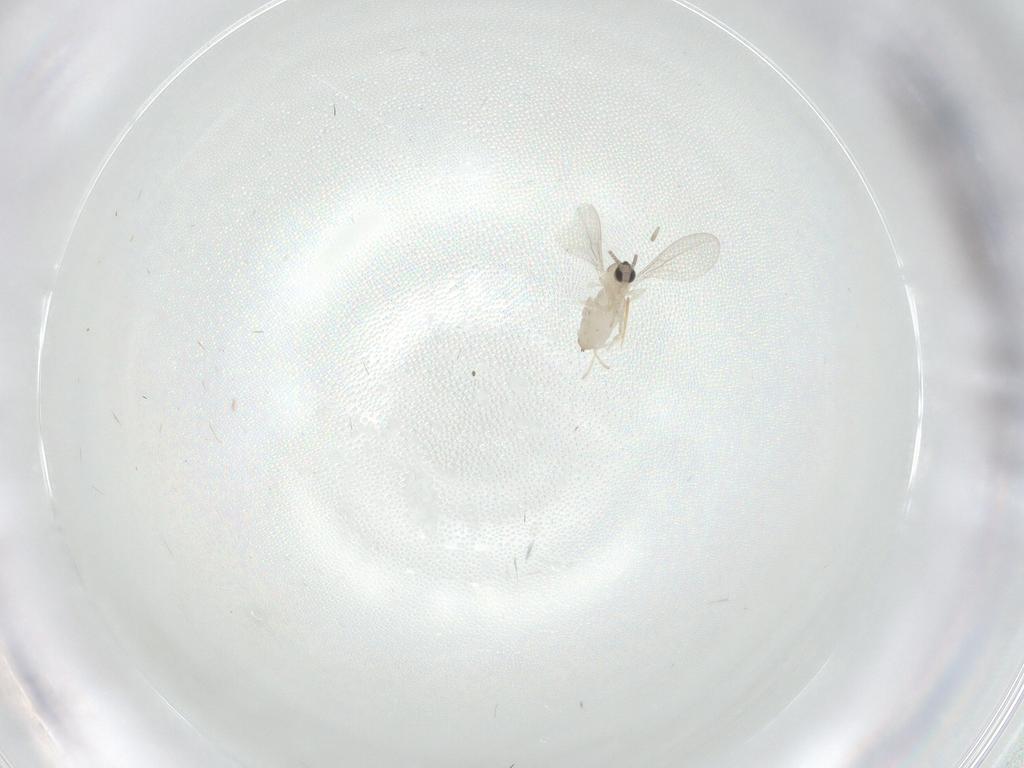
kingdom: Animalia
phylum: Arthropoda
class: Insecta
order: Diptera
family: Cecidomyiidae
